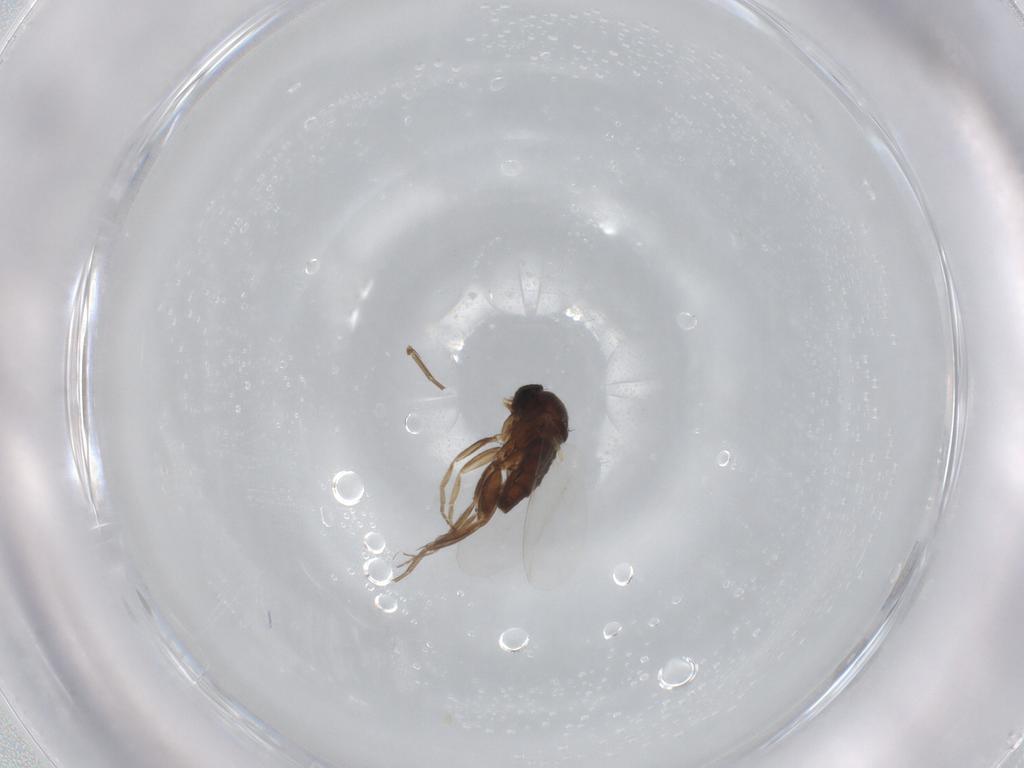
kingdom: Animalia
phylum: Arthropoda
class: Insecta
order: Diptera
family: Phoridae
